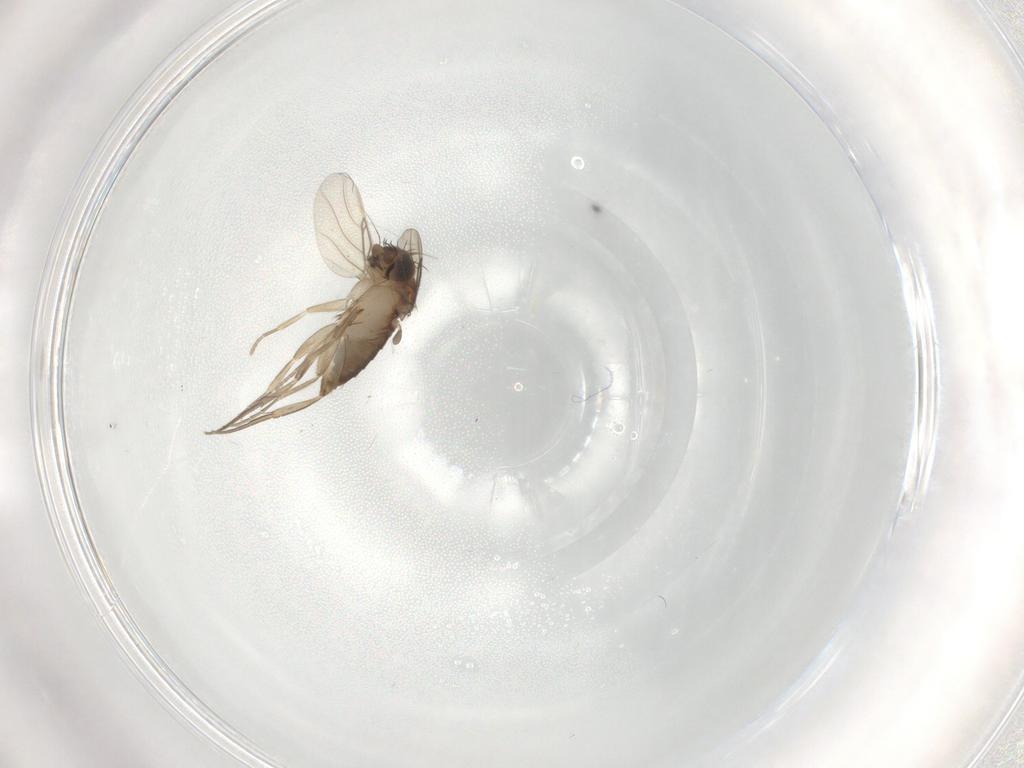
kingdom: Animalia
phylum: Arthropoda
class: Insecta
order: Diptera
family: Phoridae
